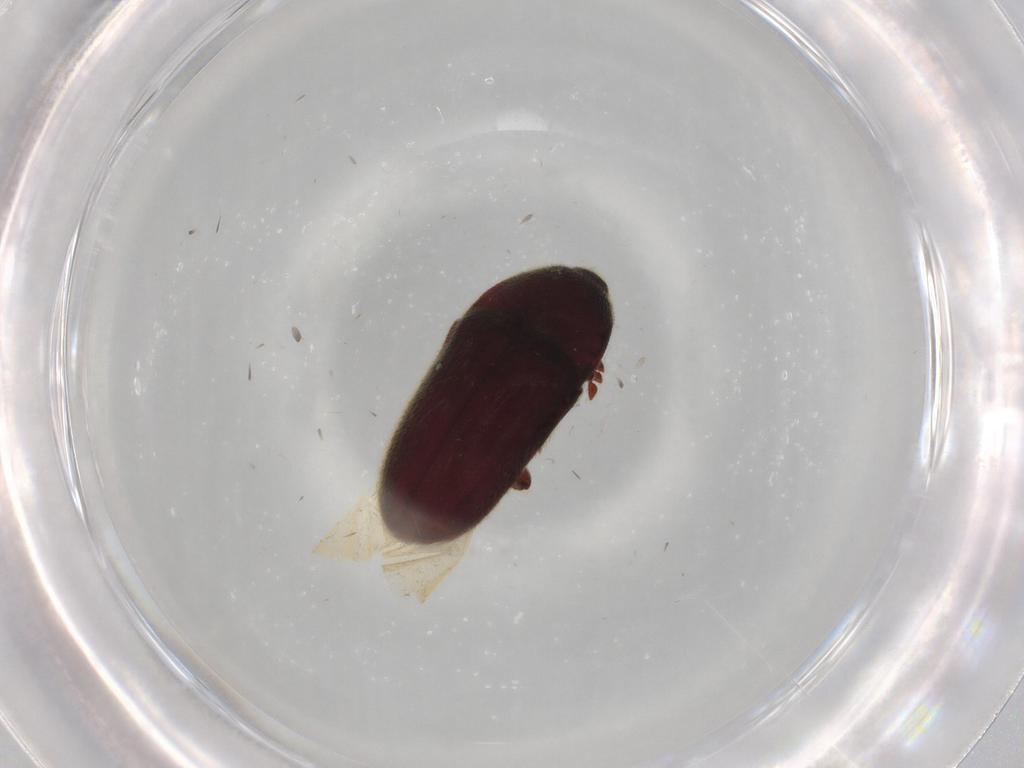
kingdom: Animalia
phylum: Arthropoda
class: Insecta
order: Coleoptera
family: Throscidae
